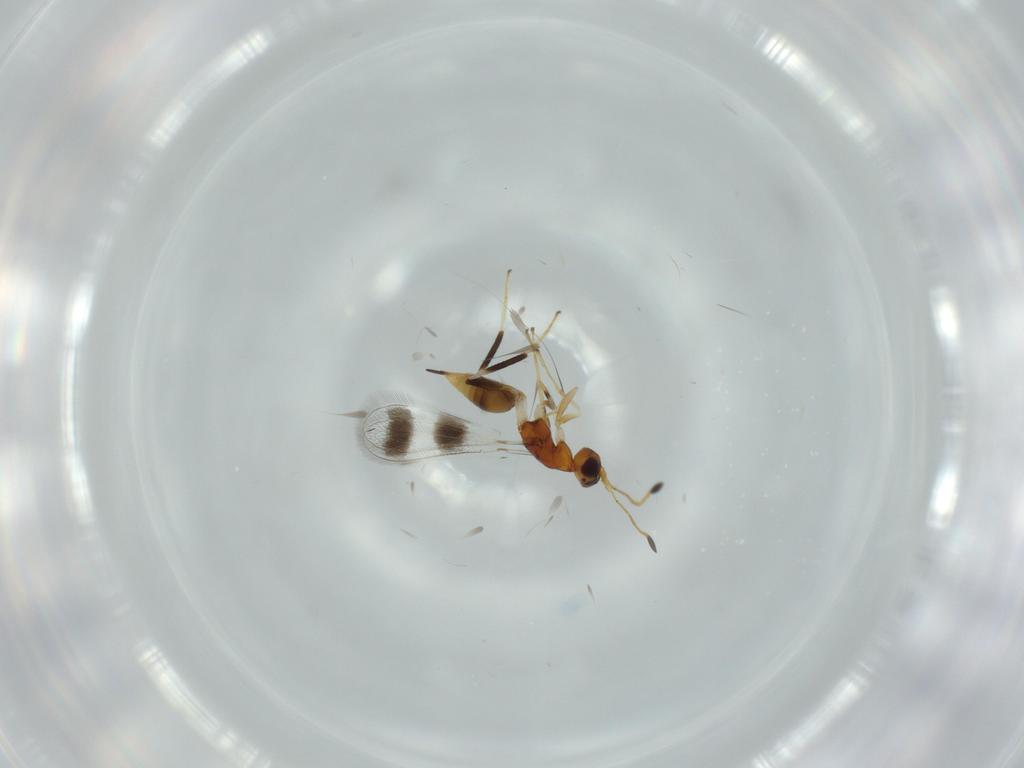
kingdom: Animalia
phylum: Arthropoda
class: Insecta
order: Hymenoptera
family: Mymaridae
